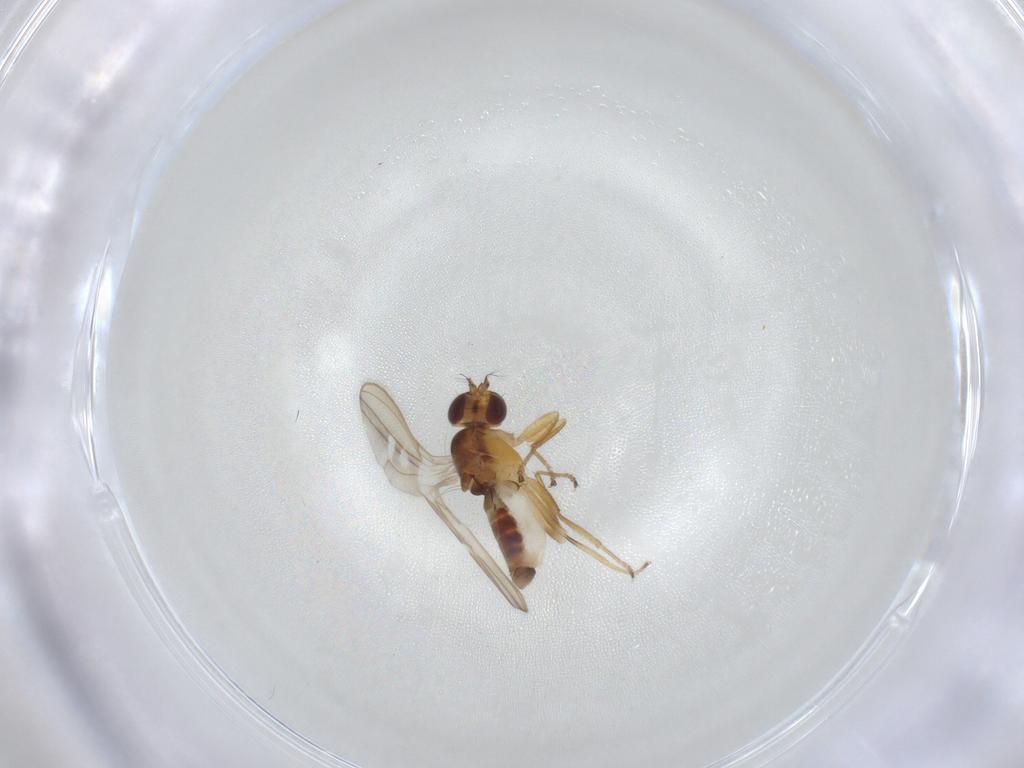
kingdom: Animalia
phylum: Arthropoda
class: Insecta
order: Diptera
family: Periscelididae
